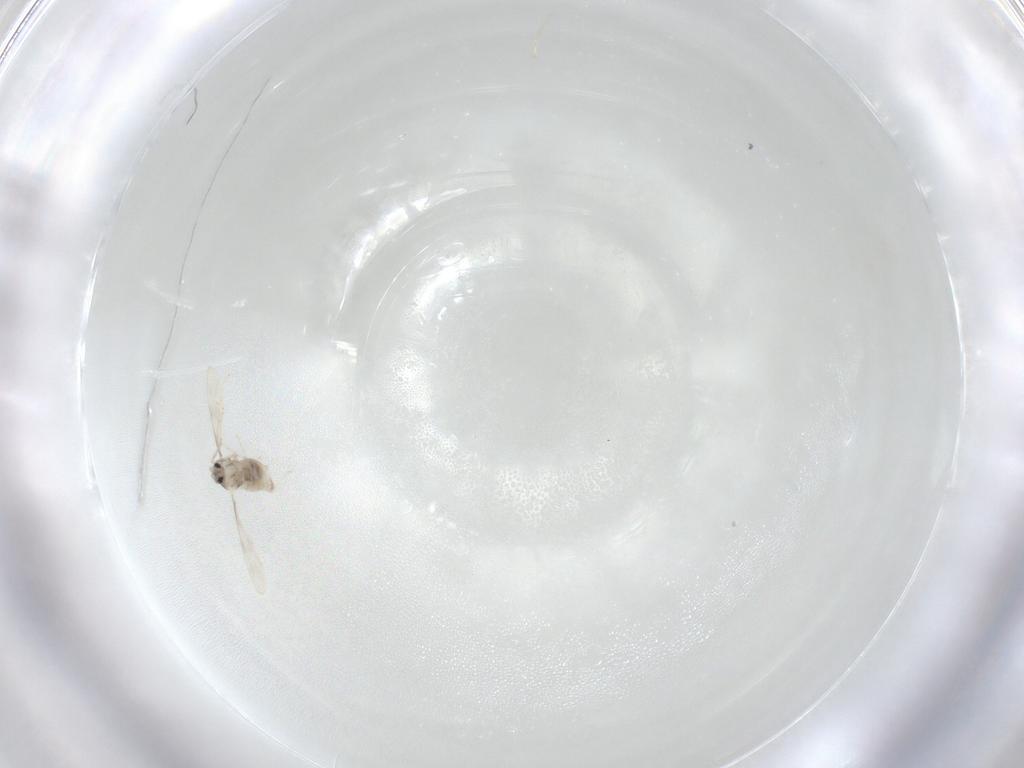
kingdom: Animalia
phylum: Arthropoda
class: Insecta
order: Diptera
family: Cecidomyiidae
